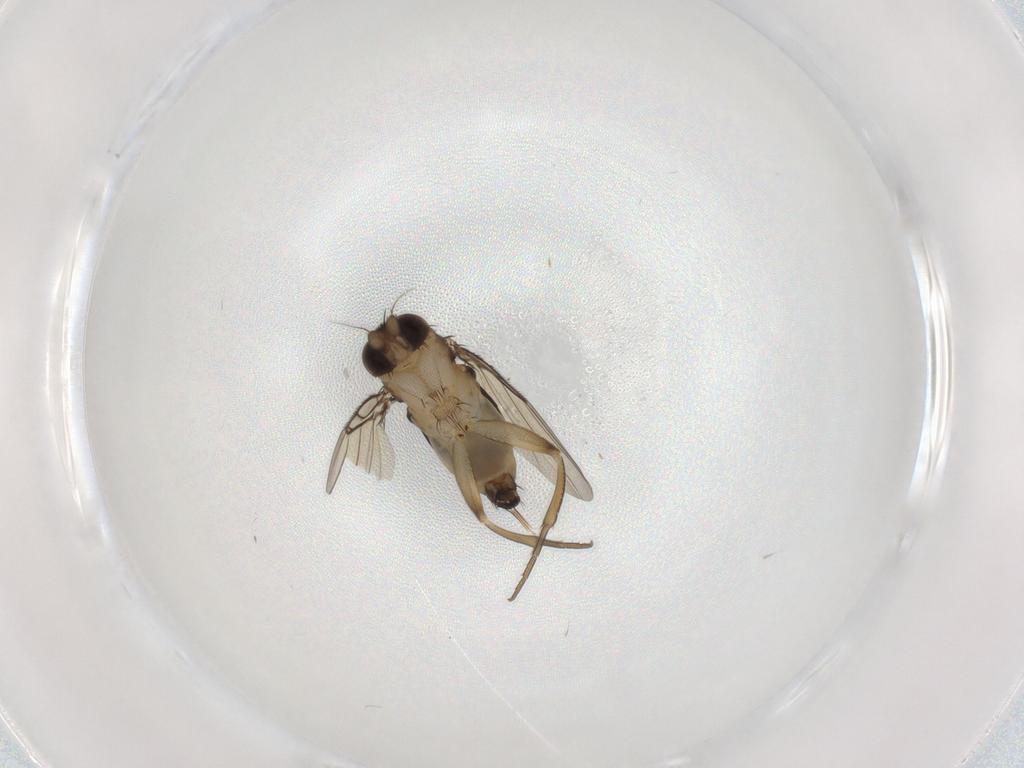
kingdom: Animalia
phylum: Arthropoda
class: Insecta
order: Diptera
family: Phoridae
